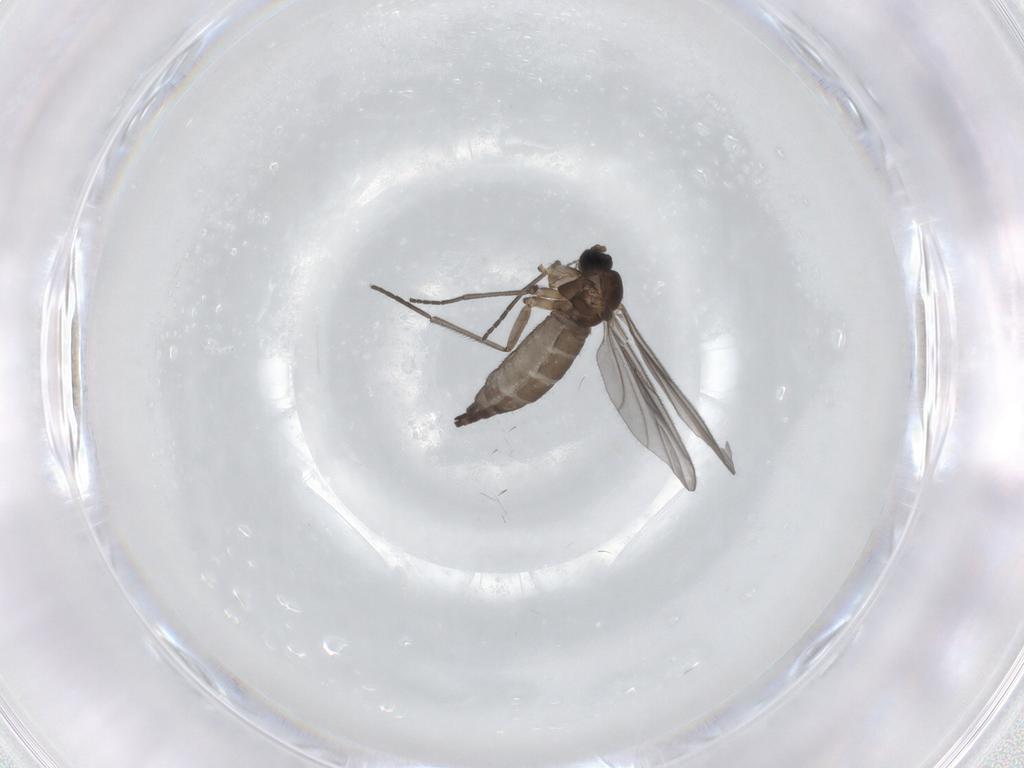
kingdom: Animalia
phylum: Arthropoda
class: Insecta
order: Diptera
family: Sciaridae
